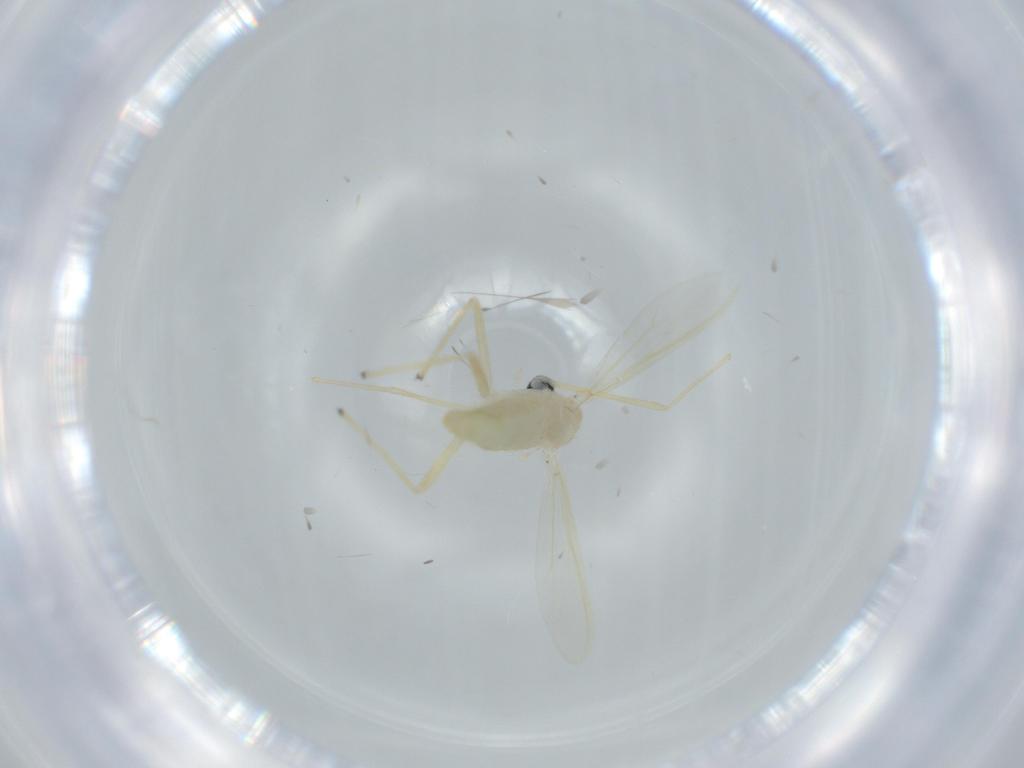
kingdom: Animalia
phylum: Arthropoda
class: Insecta
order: Diptera
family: Chironomidae
